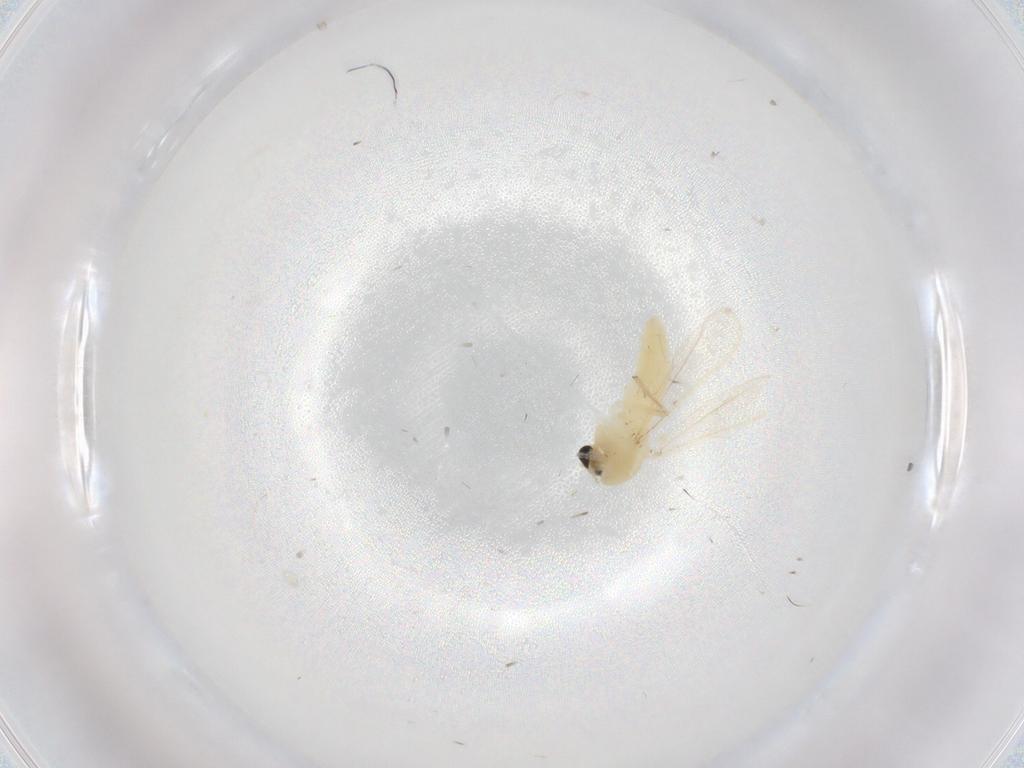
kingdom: Animalia
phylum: Arthropoda
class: Insecta
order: Diptera
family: Chironomidae
